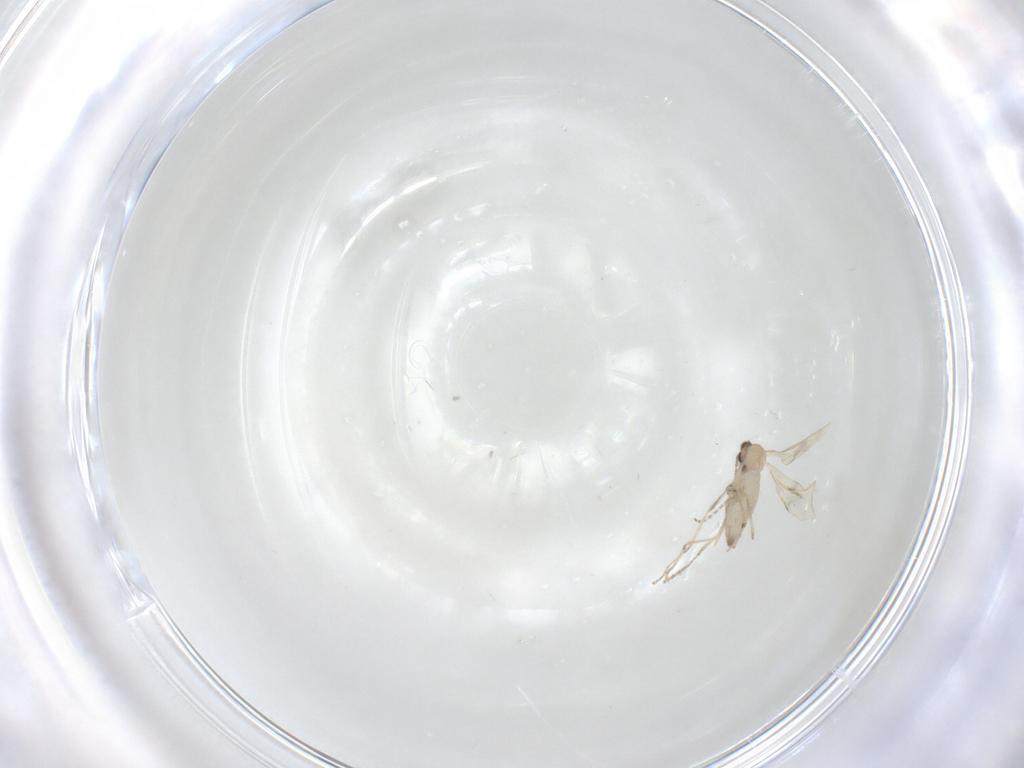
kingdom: Animalia
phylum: Arthropoda
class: Insecta
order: Diptera
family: Cecidomyiidae
